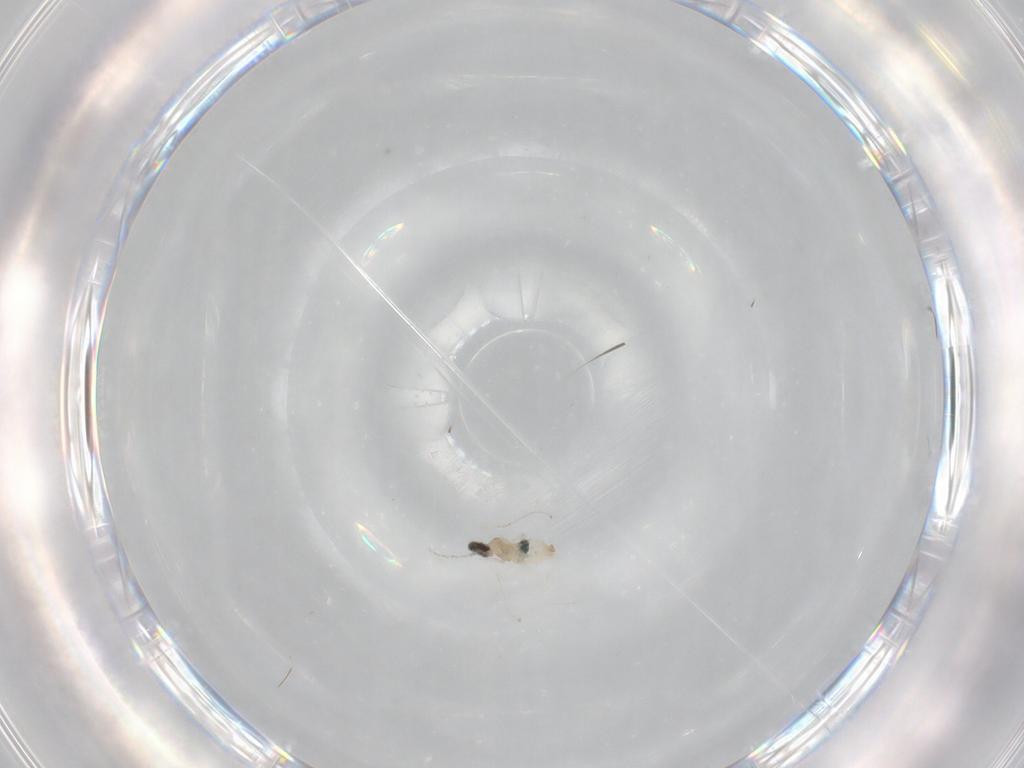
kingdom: Animalia
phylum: Arthropoda
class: Insecta
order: Diptera
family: Cecidomyiidae
